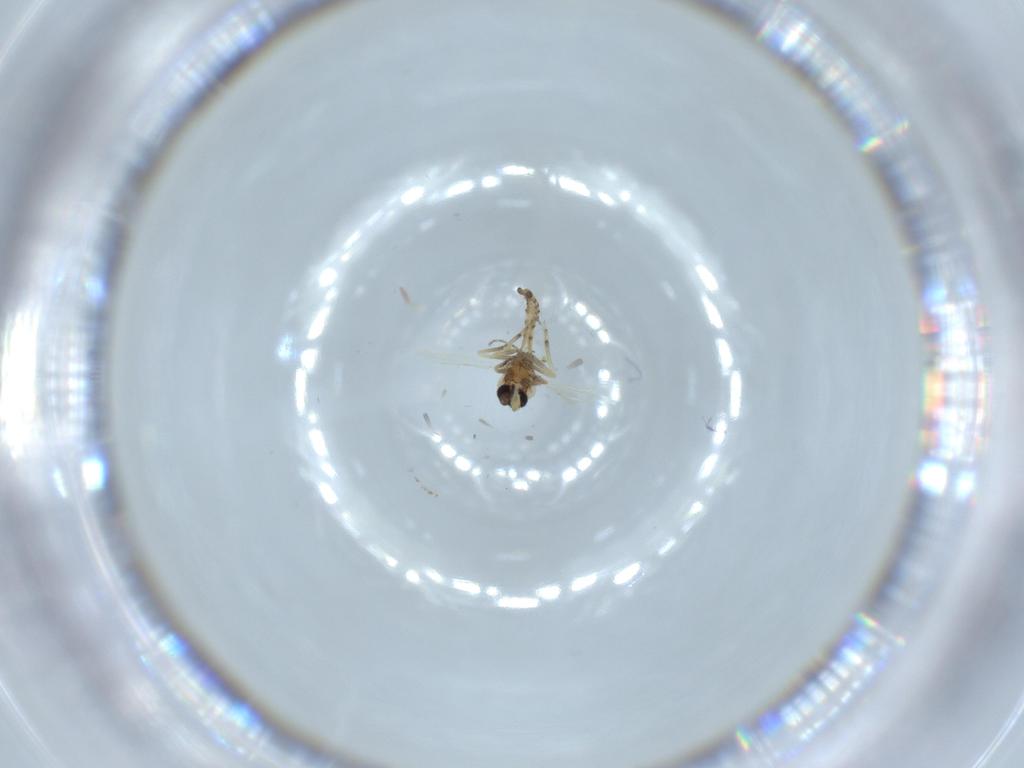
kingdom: Animalia
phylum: Arthropoda
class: Insecta
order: Diptera
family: Ceratopogonidae
